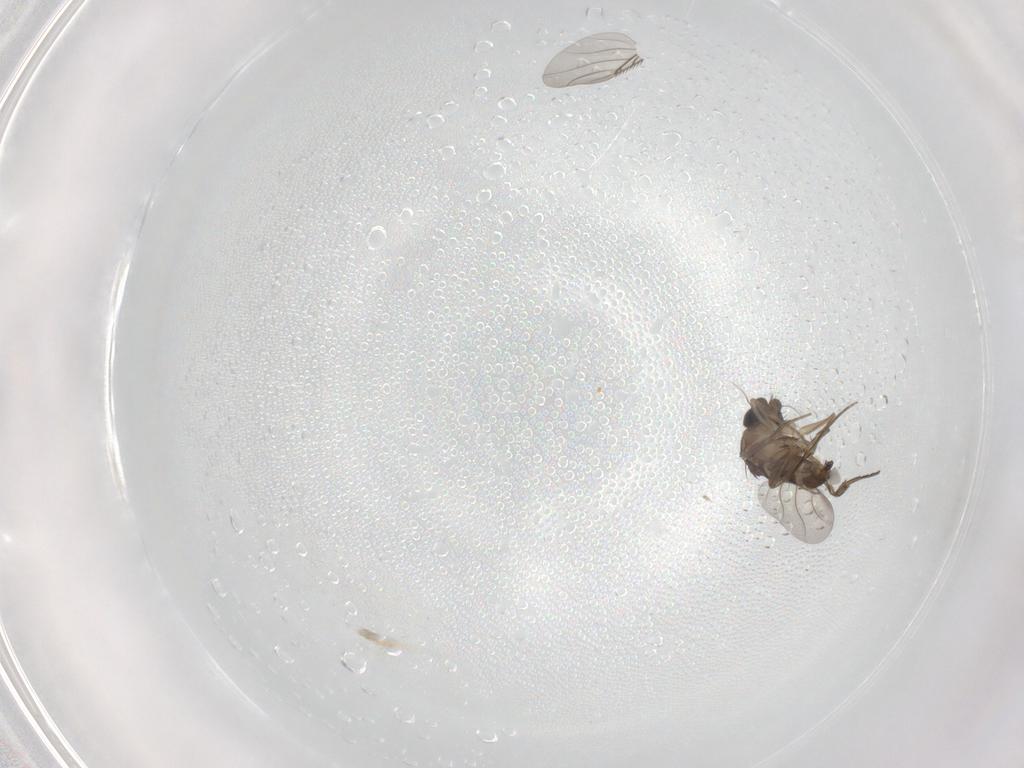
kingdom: Animalia
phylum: Arthropoda
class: Insecta
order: Diptera
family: Phoridae
